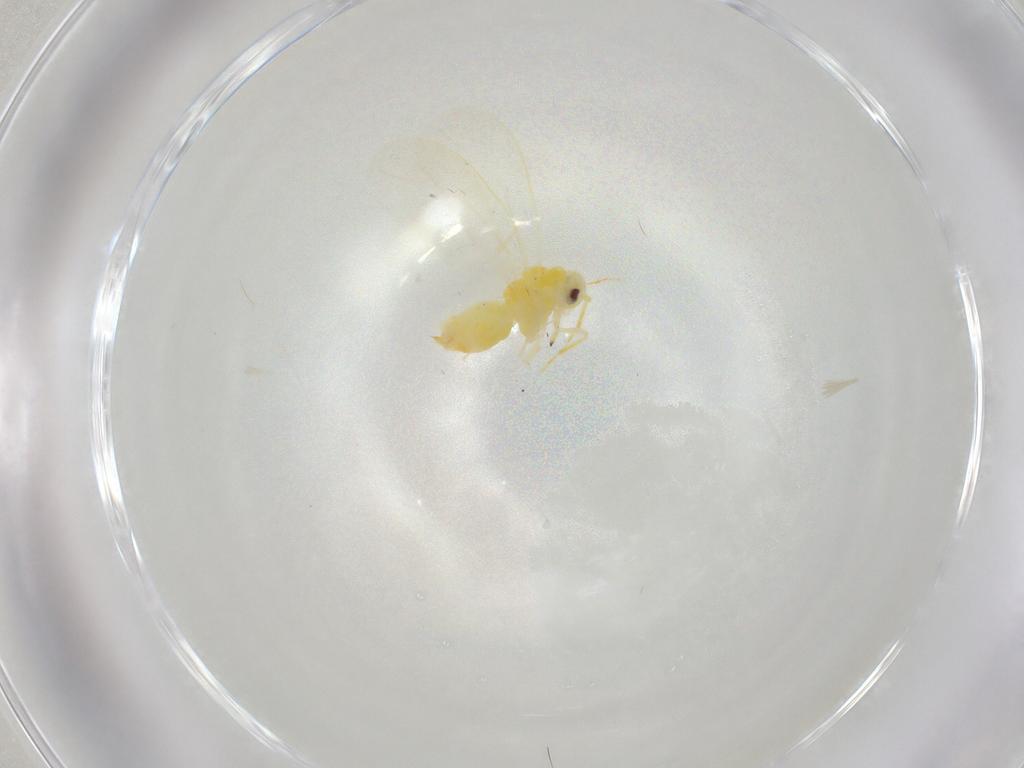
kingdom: Animalia
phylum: Arthropoda
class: Insecta
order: Hemiptera
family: Aleyrodidae
